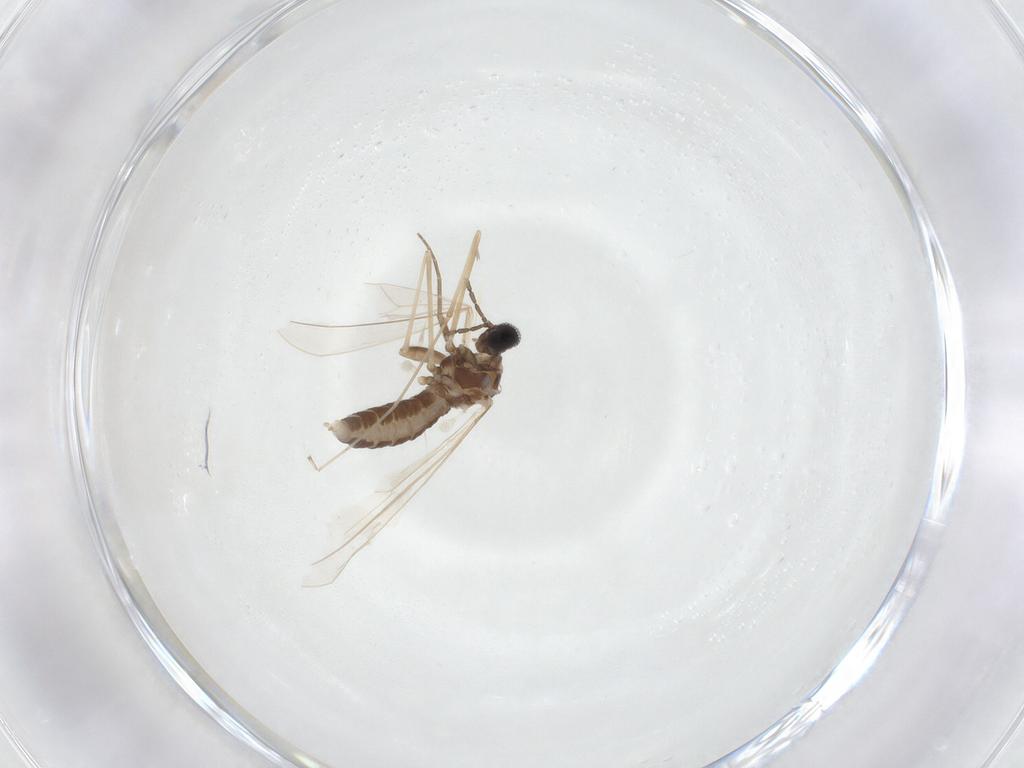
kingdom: Animalia
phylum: Arthropoda
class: Insecta
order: Diptera
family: Cecidomyiidae
